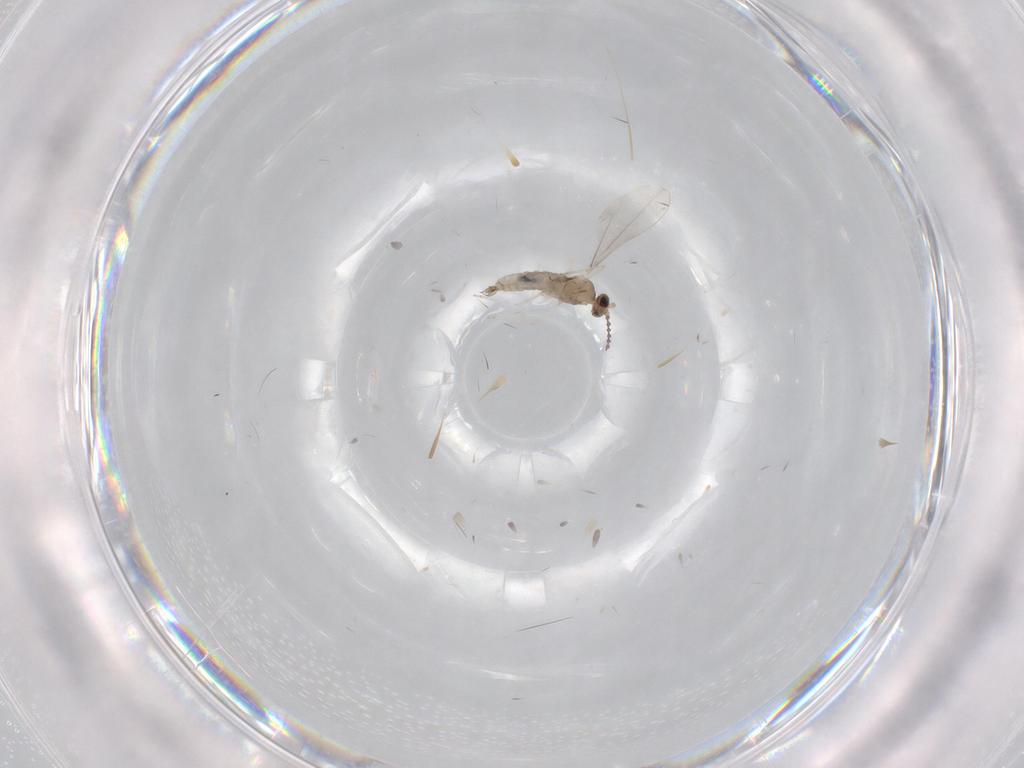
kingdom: Animalia
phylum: Arthropoda
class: Insecta
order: Diptera
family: Cecidomyiidae
